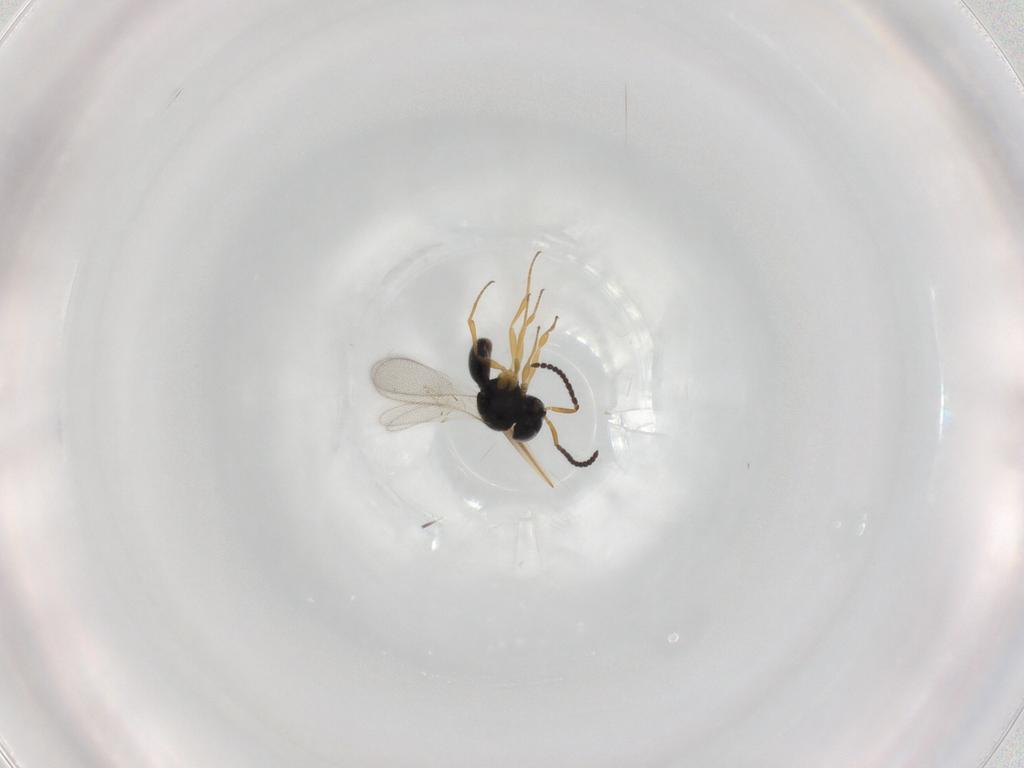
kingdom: Animalia
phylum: Arthropoda
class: Insecta
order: Hymenoptera
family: Scelionidae
